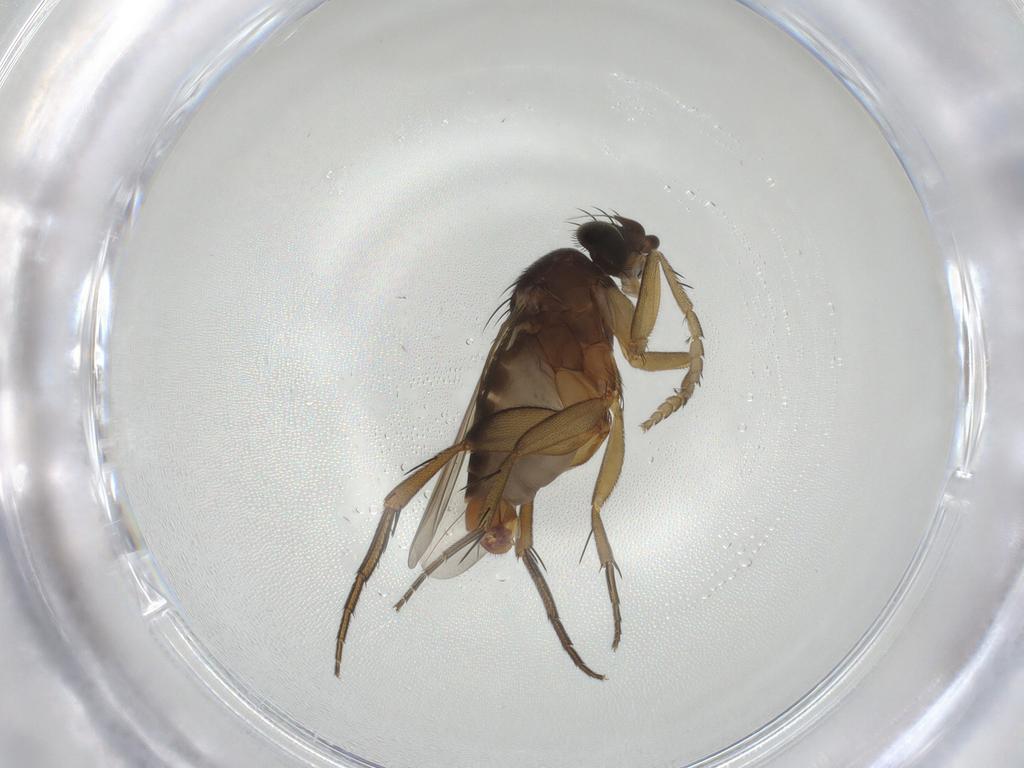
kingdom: Animalia
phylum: Arthropoda
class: Insecta
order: Diptera
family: Phoridae
